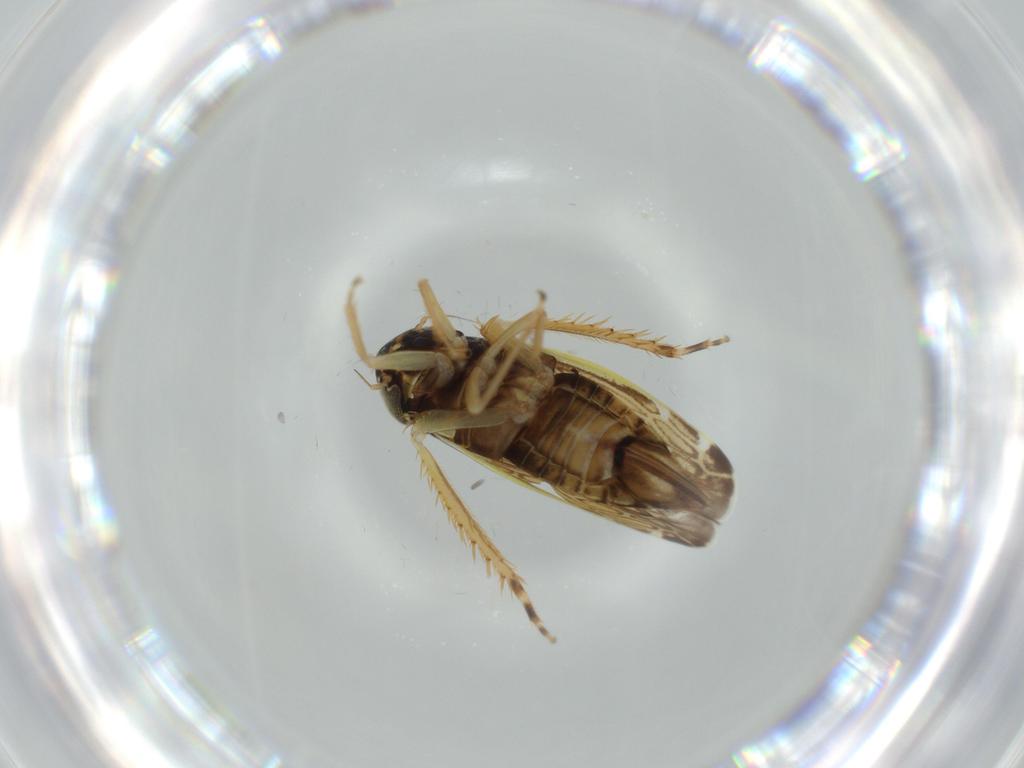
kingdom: Animalia
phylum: Arthropoda
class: Insecta
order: Hemiptera
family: Cicadellidae
